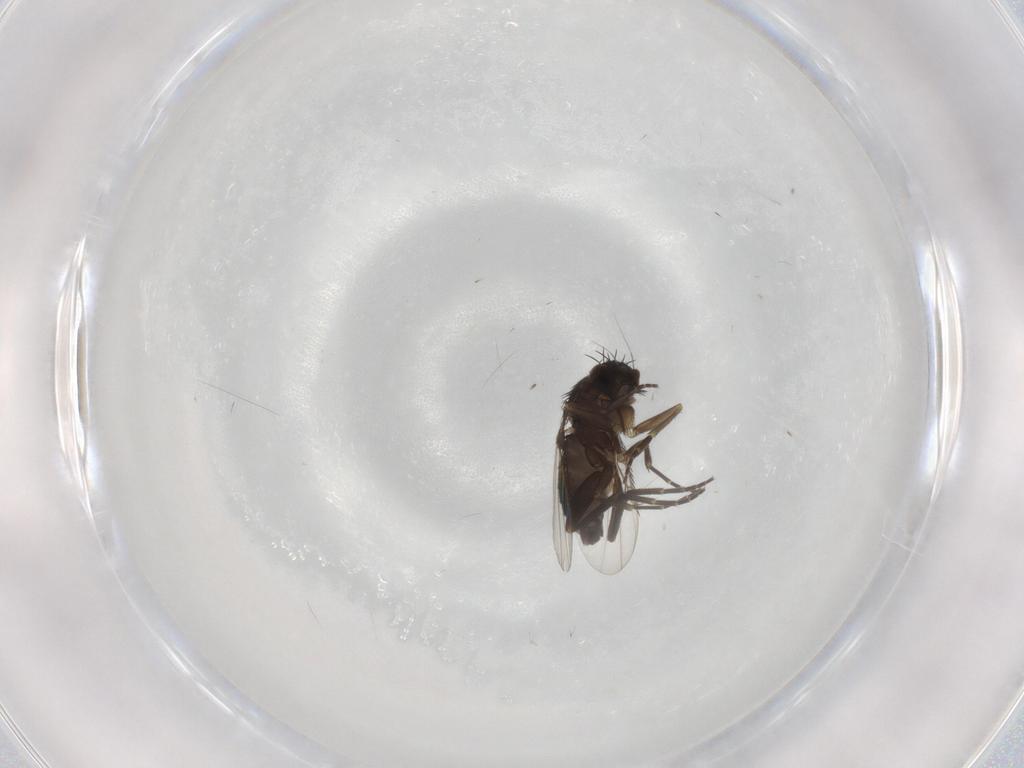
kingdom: Animalia
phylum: Arthropoda
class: Insecta
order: Diptera
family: Phoridae
